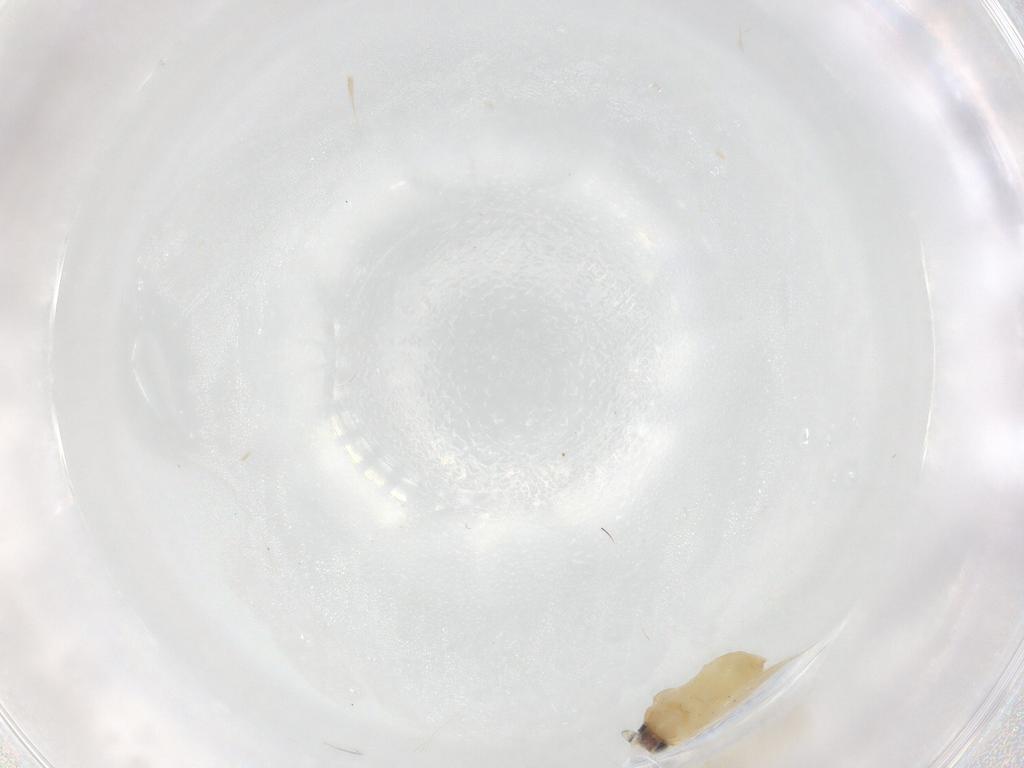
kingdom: Animalia
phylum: Arthropoda
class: Insecta
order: Lepidoptera
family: Nepticulidae
